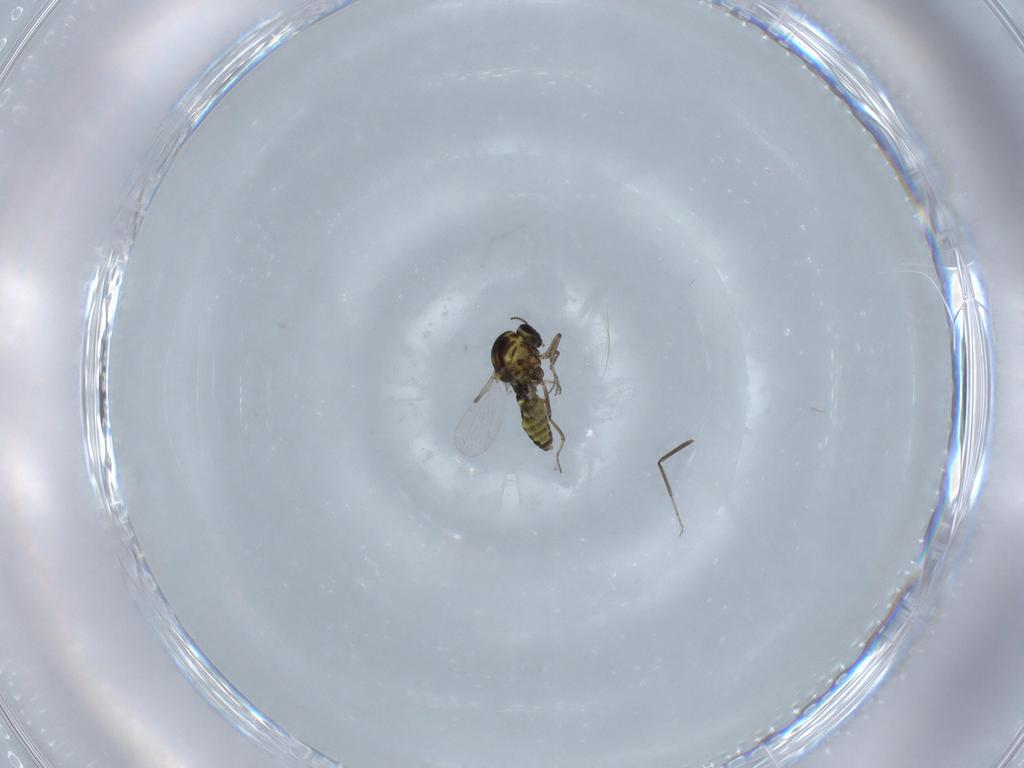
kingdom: Animalia
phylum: Arthropoda
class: Insecta
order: Diptera
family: Ceratopogonidae
